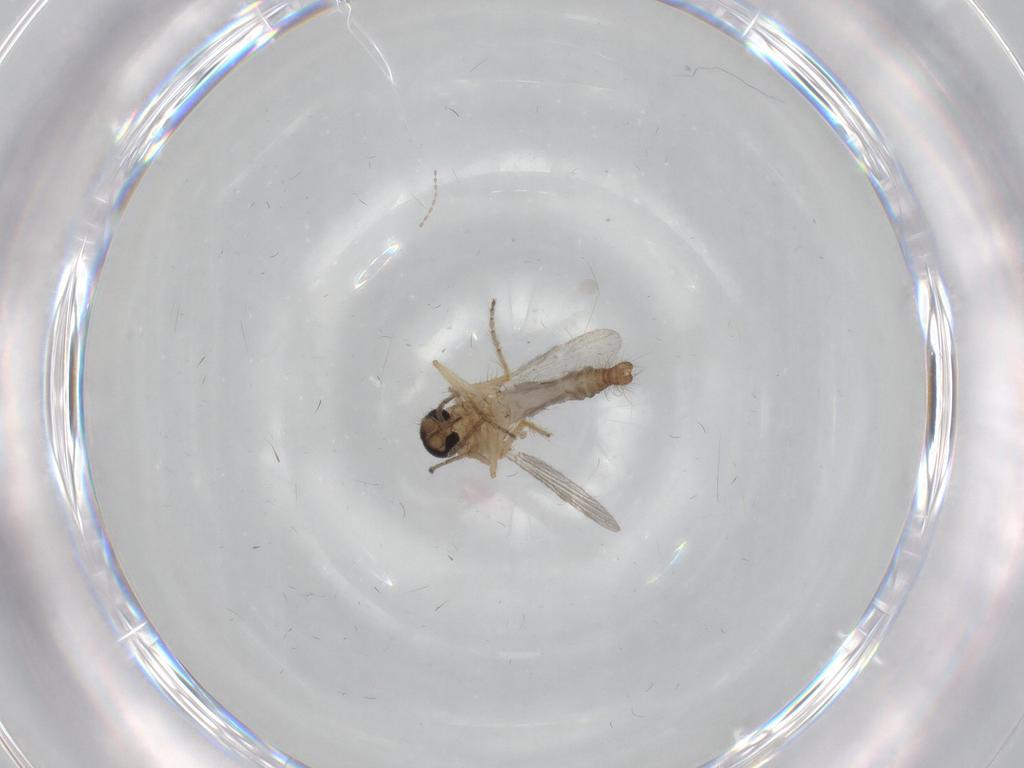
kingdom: Animalia
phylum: Arthropoda
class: Insecta
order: Diptera
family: Ceratopogonidae
